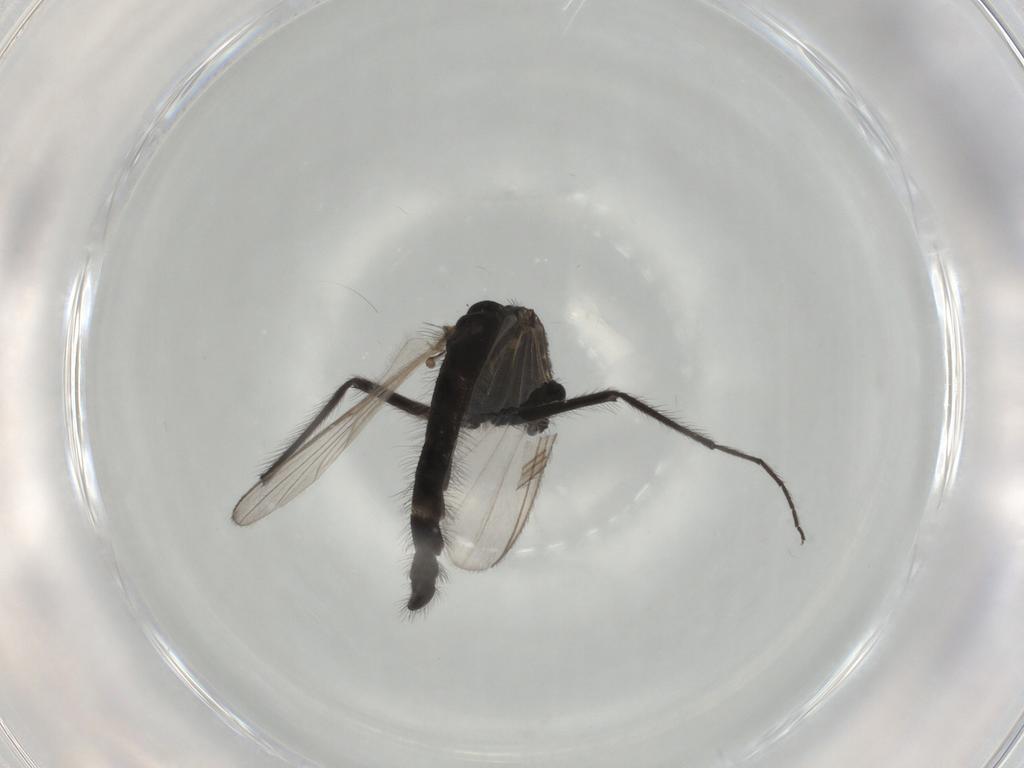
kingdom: Animalia
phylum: Arthropoda
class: Insecta
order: Diptera
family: Cecidomyiidae
